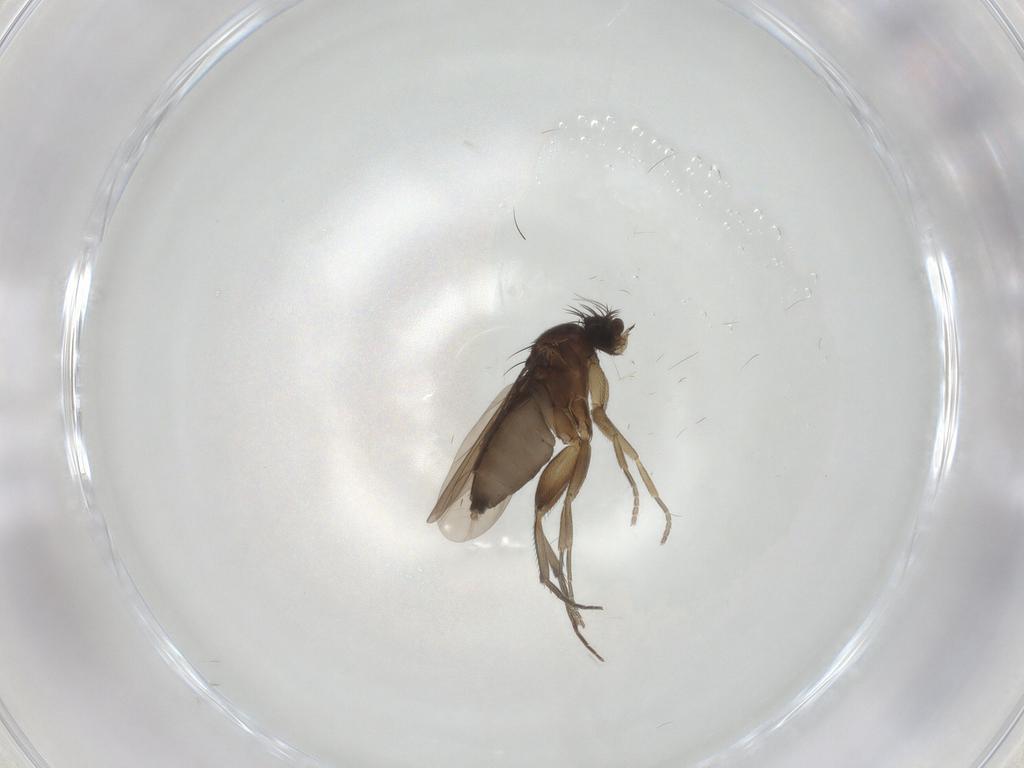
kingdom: Animalia
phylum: Arthropoda
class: Insecta
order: Diptera
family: Phoridae
